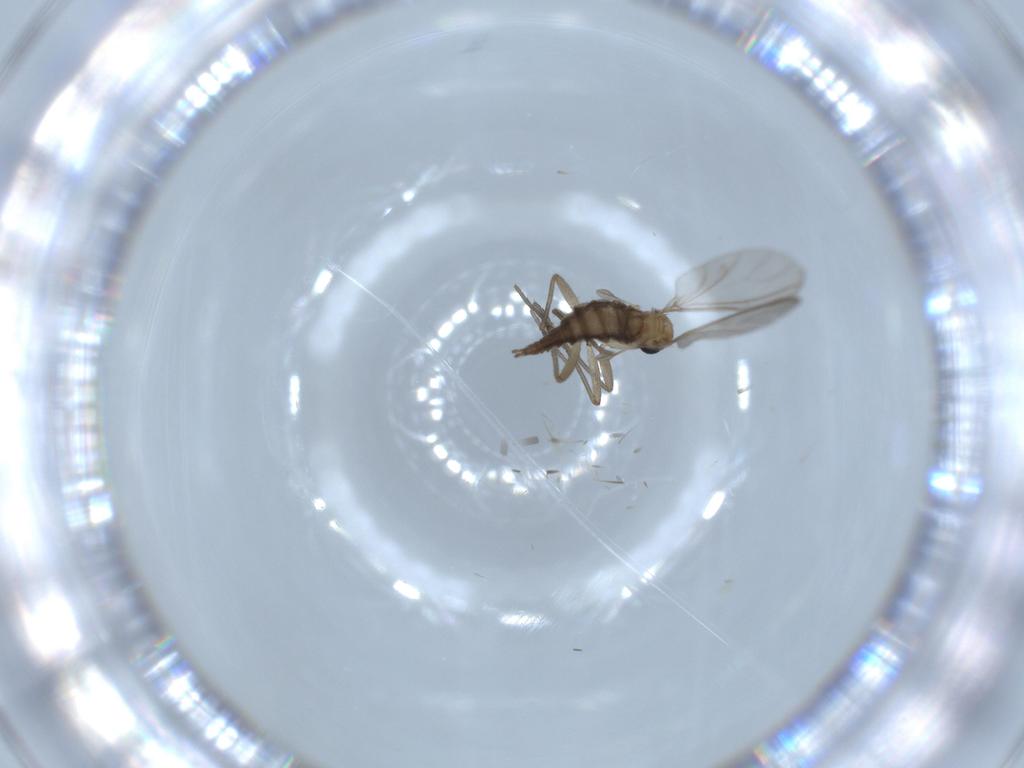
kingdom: Animalia
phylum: Arthropoda
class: Insecta
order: Diptera
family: Sciaridae
